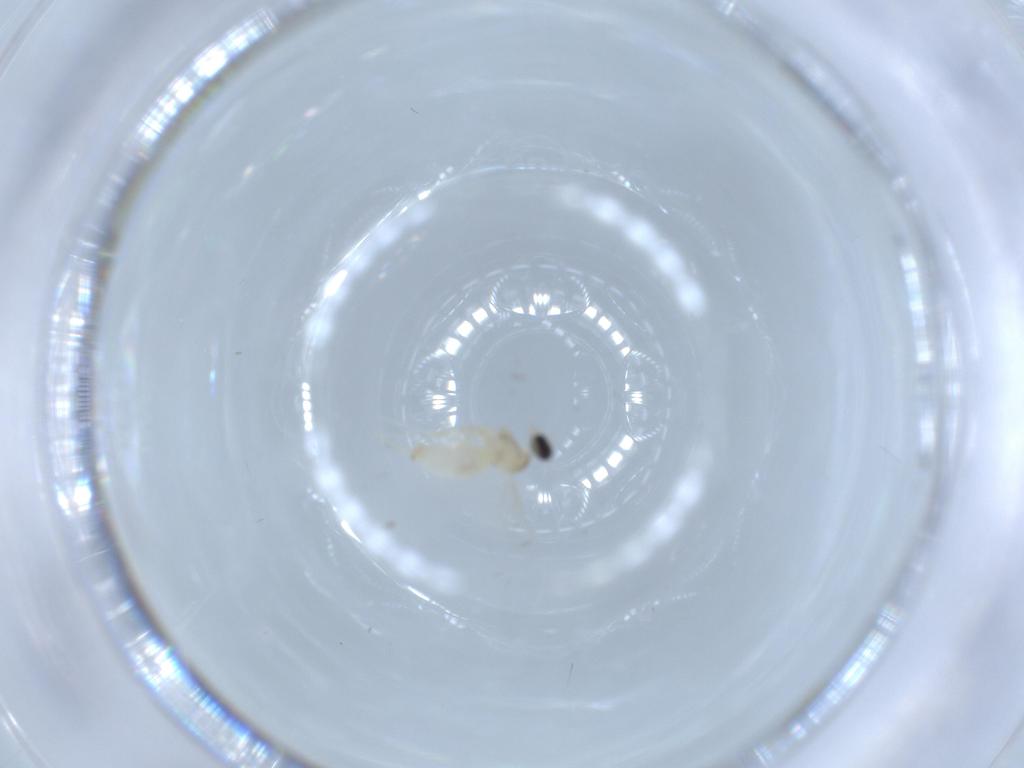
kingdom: Animalia
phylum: Arthropoda
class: Insecta
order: Diptera
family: Cecidomyiidae
